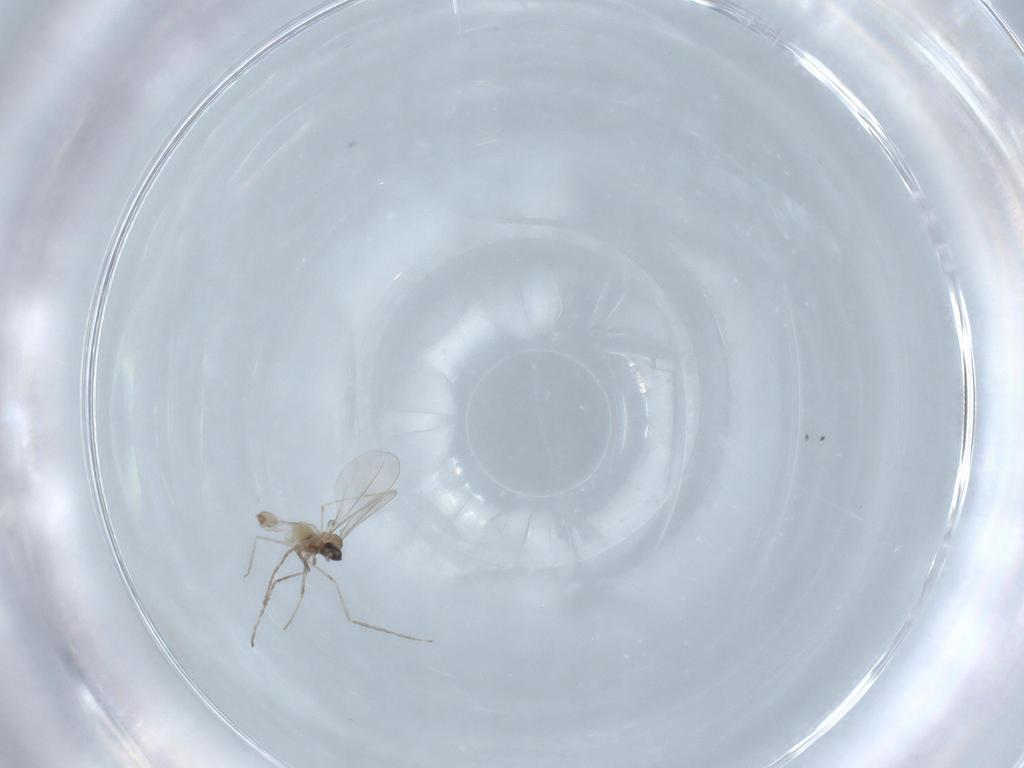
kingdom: Animalia
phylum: Arthropoda
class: Insecta
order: Diptera
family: Cecidomyiidae
